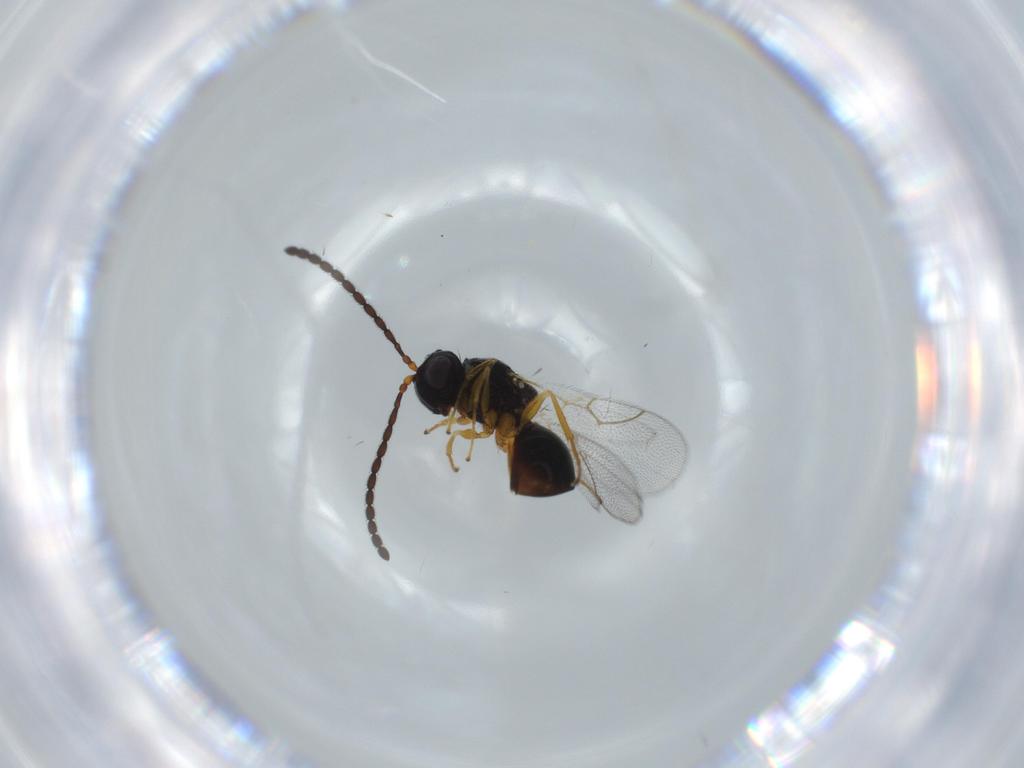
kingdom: Animalia
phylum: Arthropoda
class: Insecta
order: Hymenoptera
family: Figitidae
